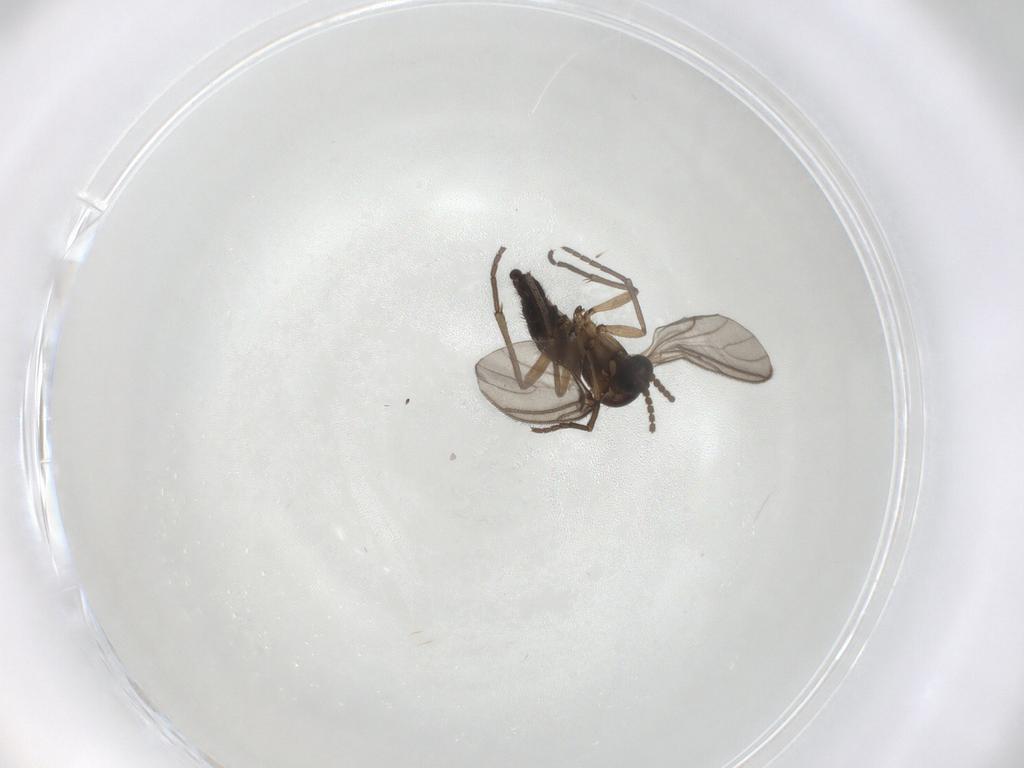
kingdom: Animalia
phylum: Arthropoda
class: Insecta
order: Diptera
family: Sciaridae
